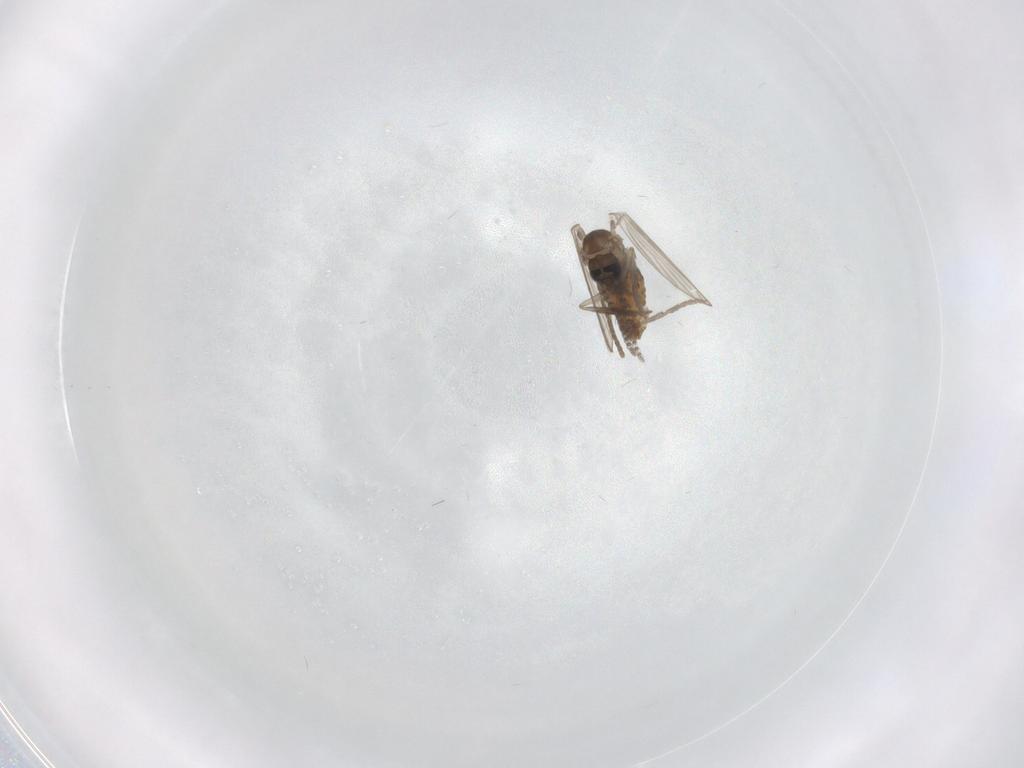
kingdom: Animalia
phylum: Arthropoda
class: Insecta
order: Diptera
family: Psychodidae
